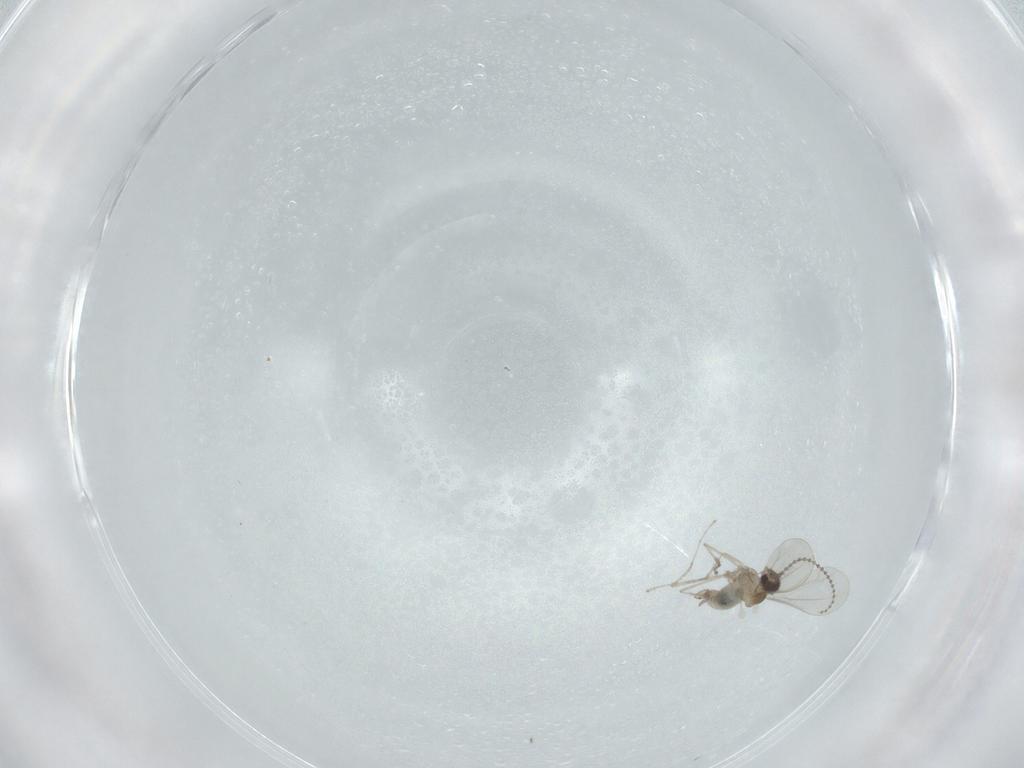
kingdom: Animalia
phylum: Arthropoda
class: Insecta
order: Diptera
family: Cecidomyiidae
